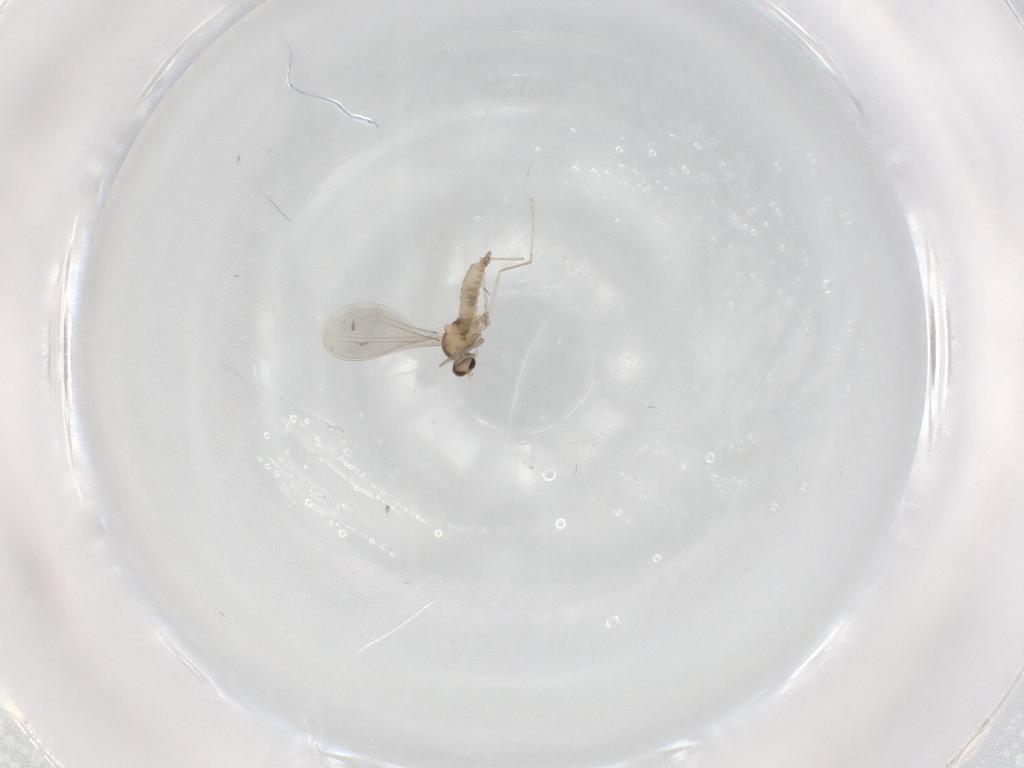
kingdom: Animalia
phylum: Arthropoda
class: Insecta
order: Diptera
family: Cecidomyiidae
